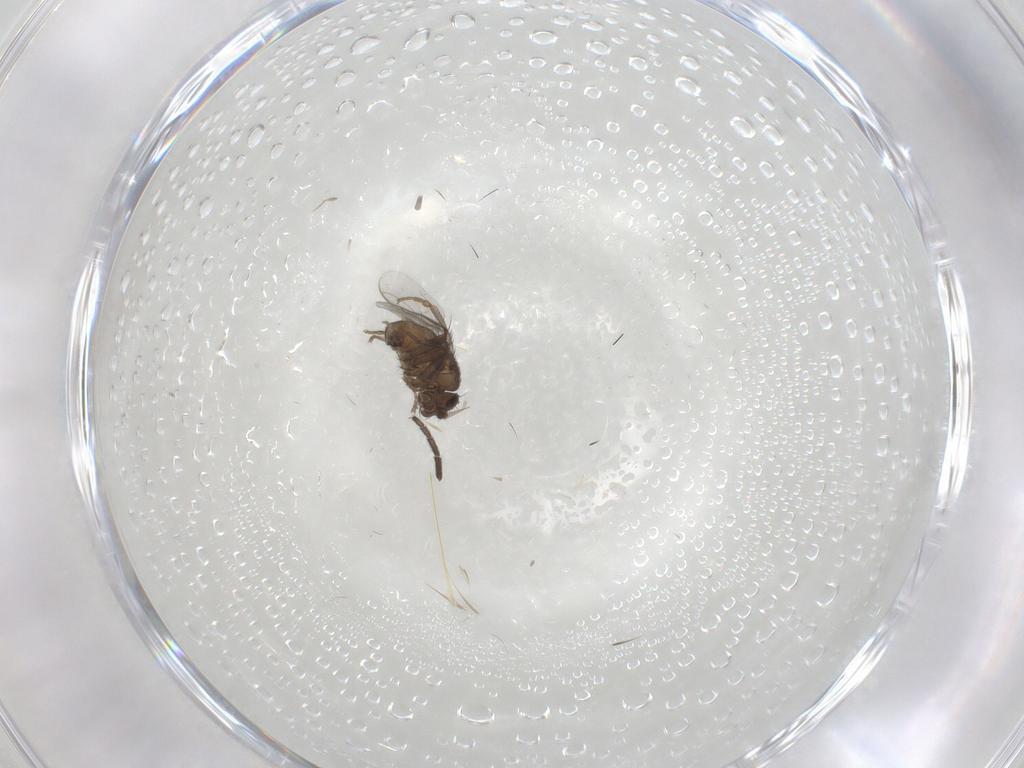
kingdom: Animalia
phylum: Arthropoda
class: Insecta
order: Diptera
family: Sphaeroceridae
